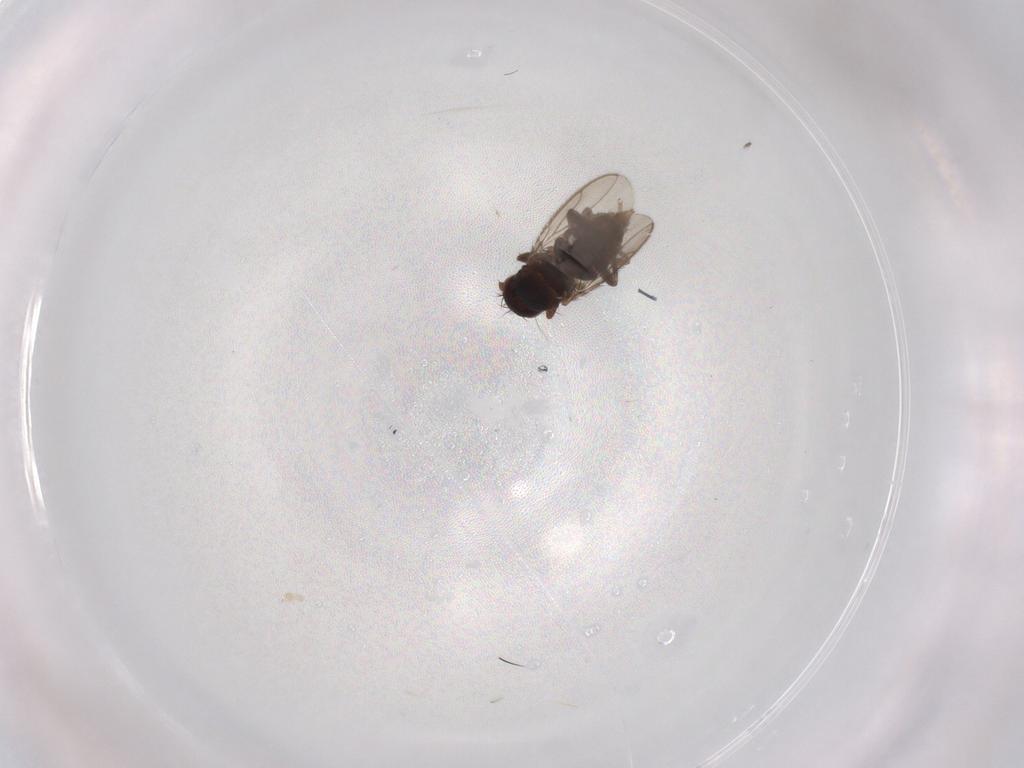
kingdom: Animalia
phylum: Arthropoda
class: Insecta
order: Diptera
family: Sphaeroceridae
